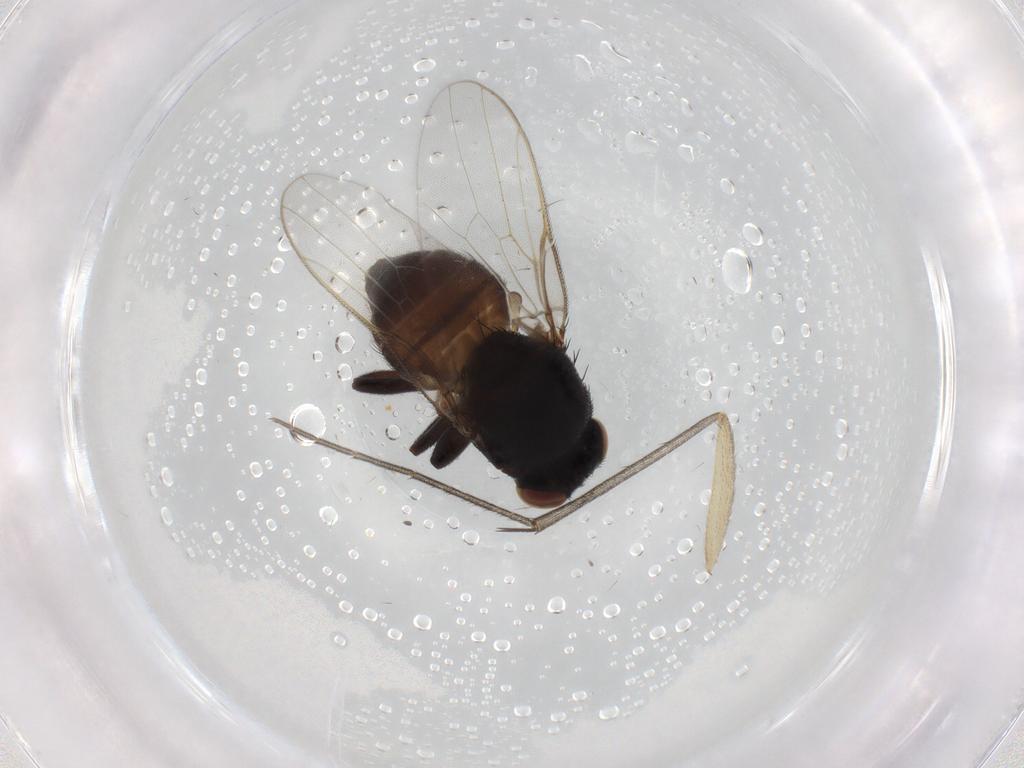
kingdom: Animalia
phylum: Arthropoda
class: Insecta
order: Diptera
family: Chloropidae
